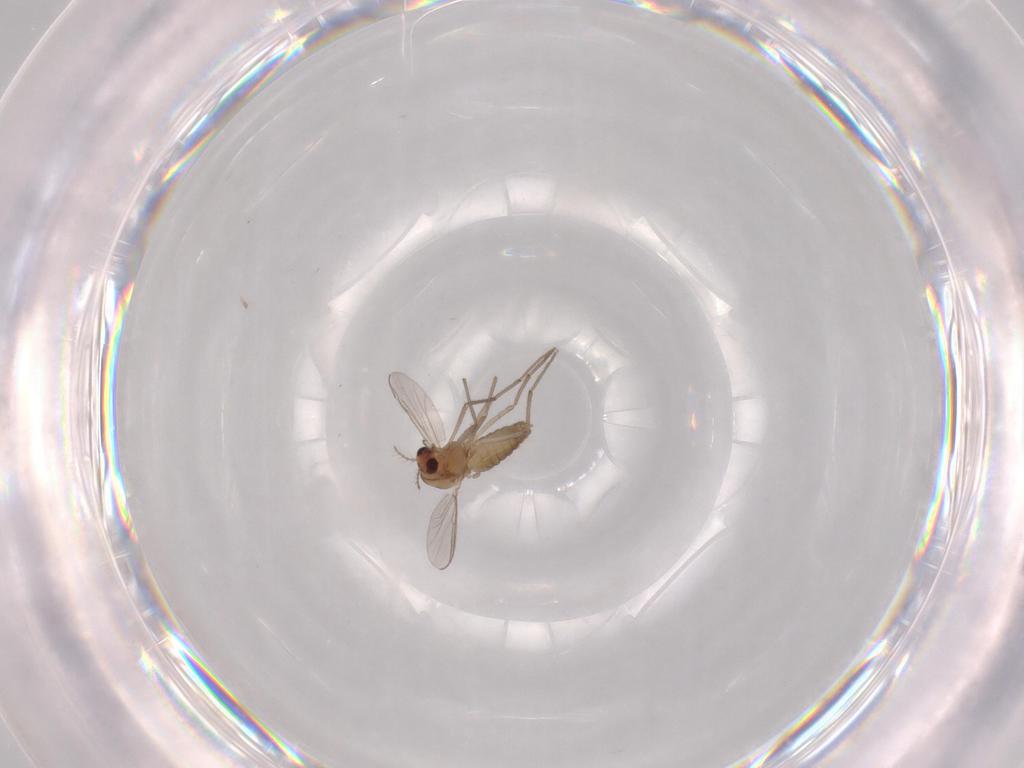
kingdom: Animalia
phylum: Arthropoda
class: Insecta
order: Diptera
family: Chironomidae
